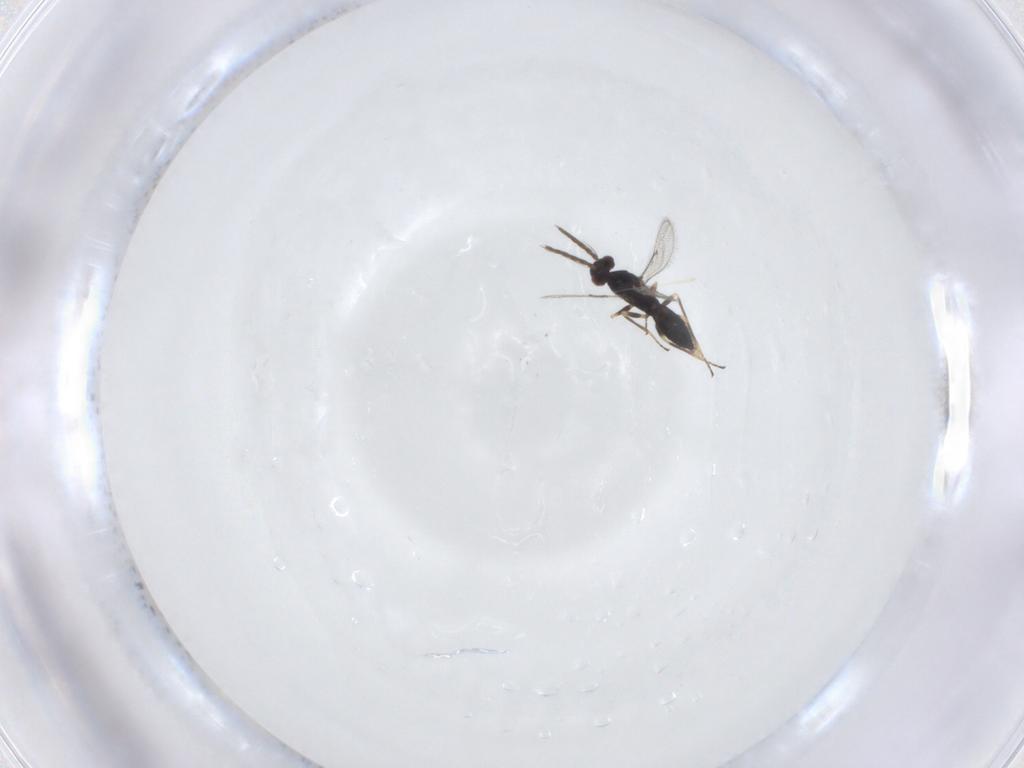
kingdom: Animalia
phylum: Arthropoda
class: Insecta
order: Hymenoptera
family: Eulophidae
